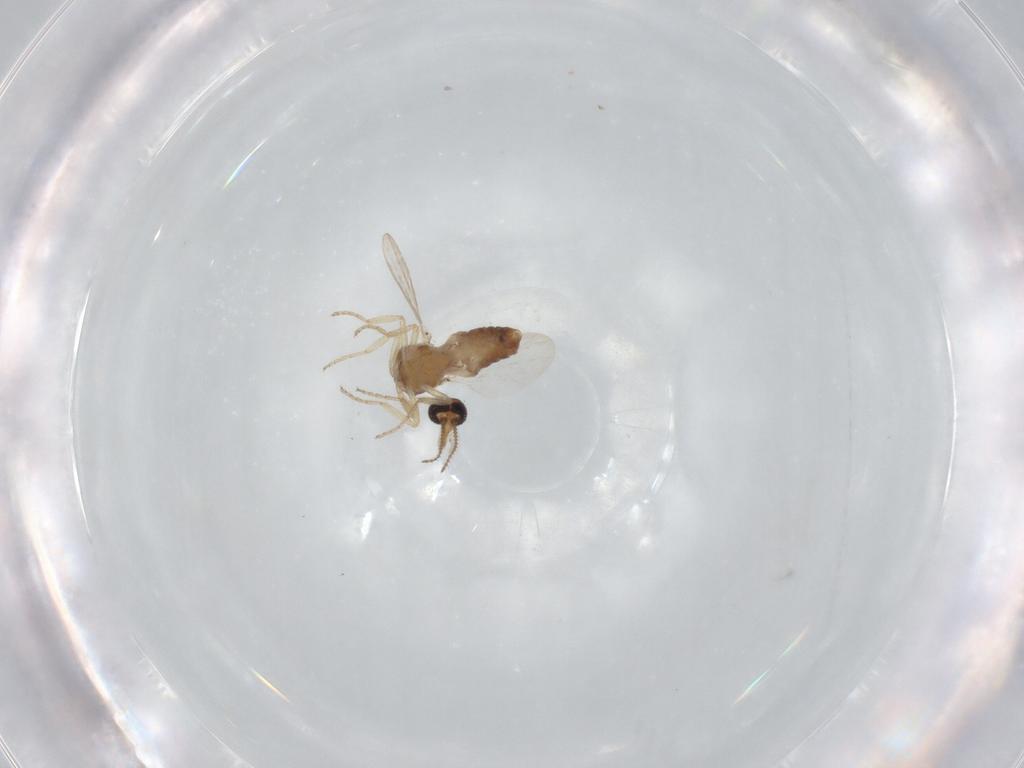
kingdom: Animalia
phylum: Arthropoda
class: Insecta
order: Diptera
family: Ceratopogonidae
